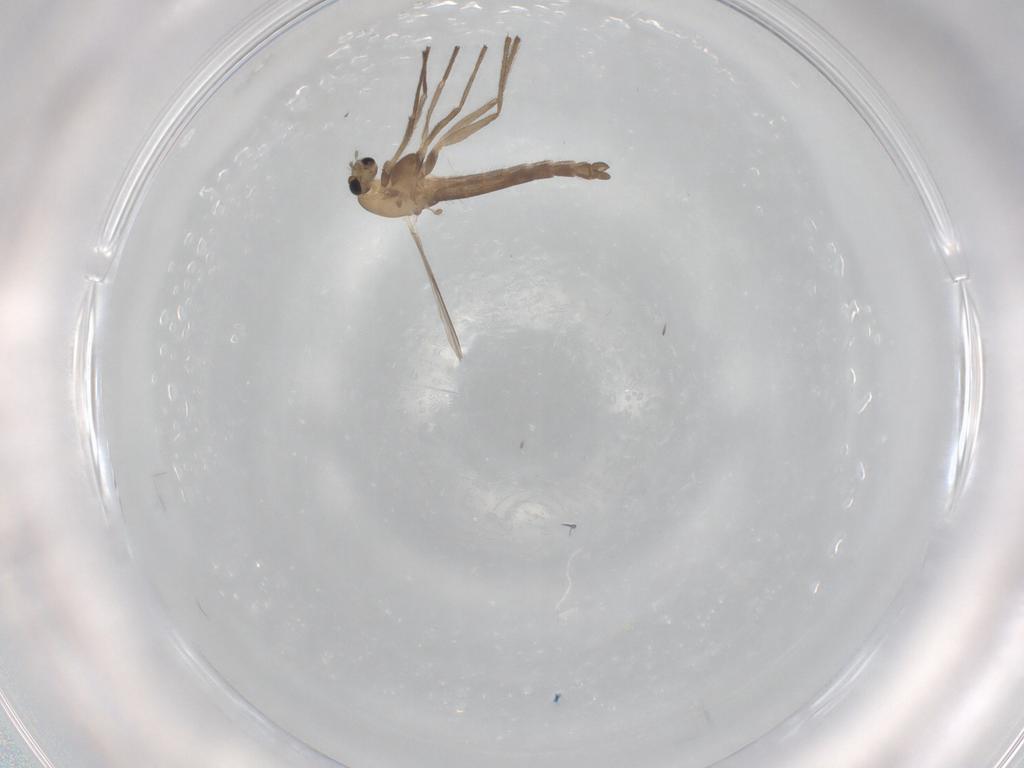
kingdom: Animalia
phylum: Arthropoda
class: Insecta
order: Diptera
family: Chironomidae
